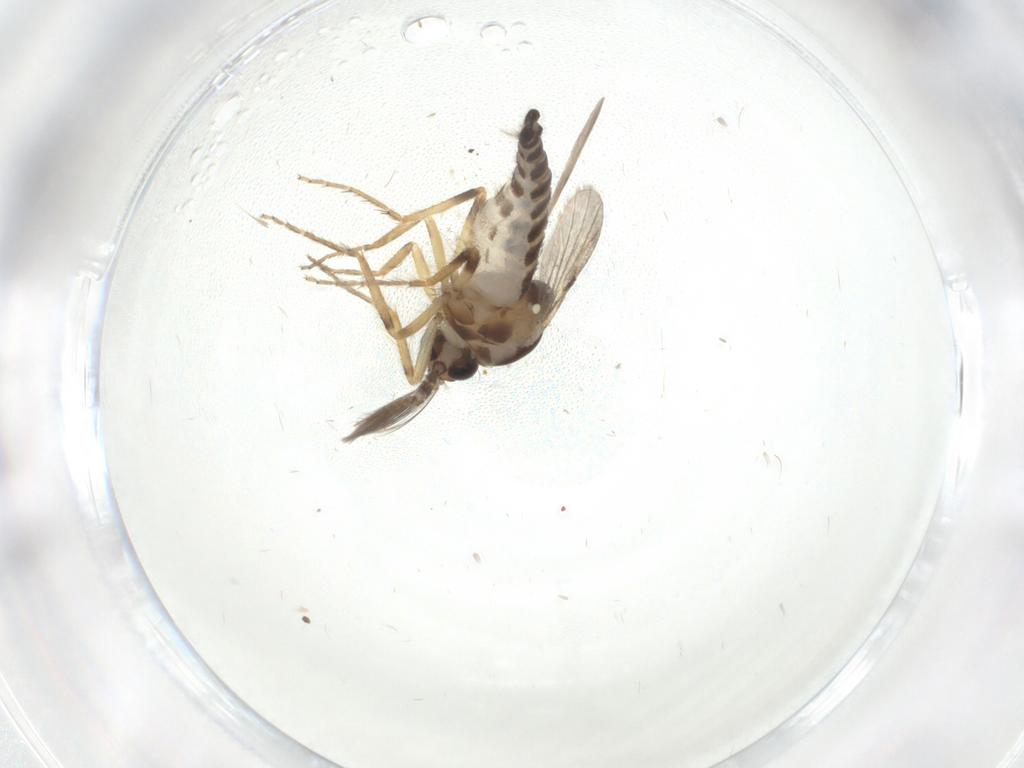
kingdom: Animalia
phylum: Arthropoda
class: Insecta
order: Diptera
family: Ceratopogonidae
